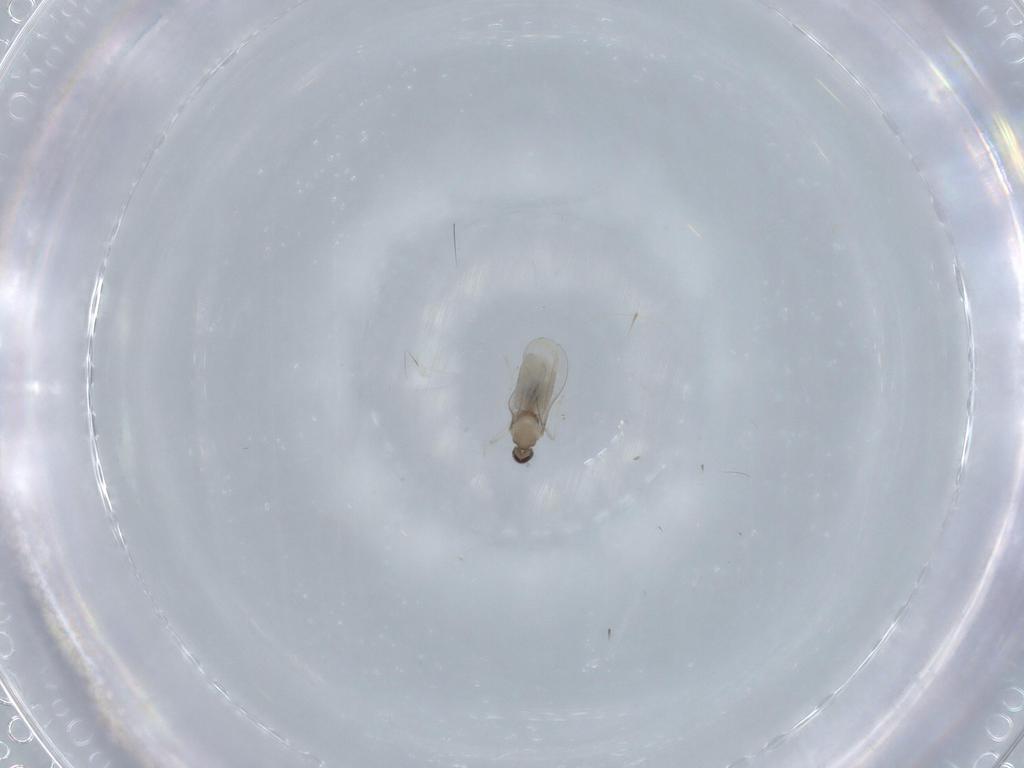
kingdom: Animalia
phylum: Arthropoda
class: Insecta
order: Diptera
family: Cecidomyiidae
